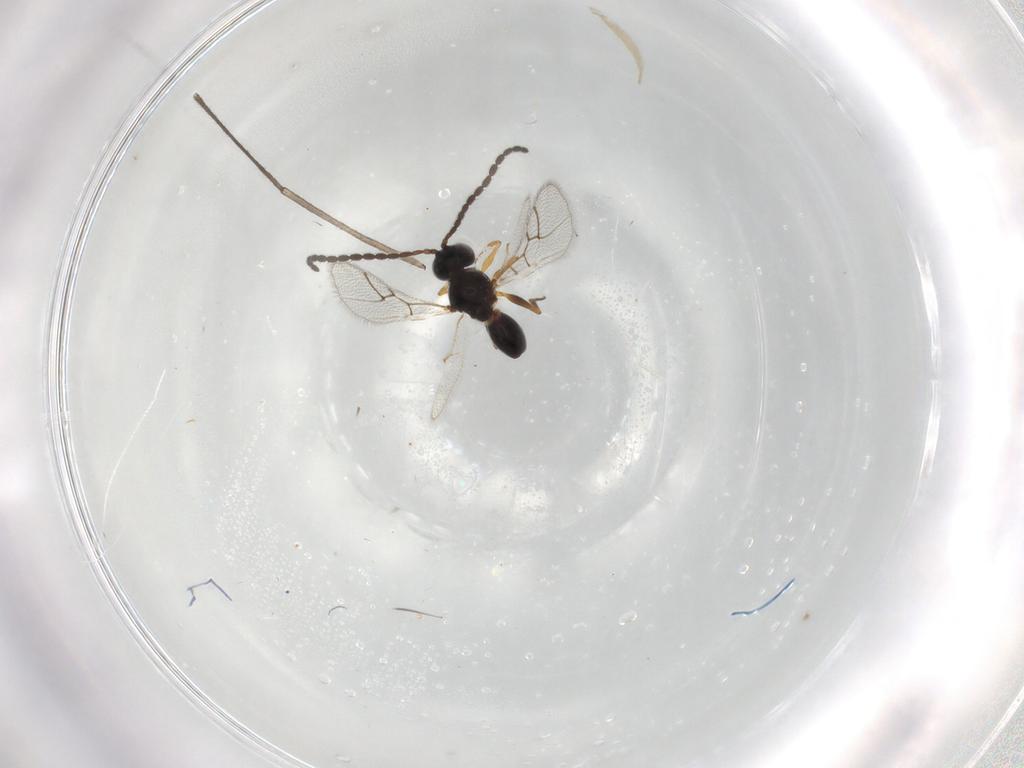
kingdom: Animalia
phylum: Arthropoda
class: Insecta
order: Hymenoptera
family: Figitidae
